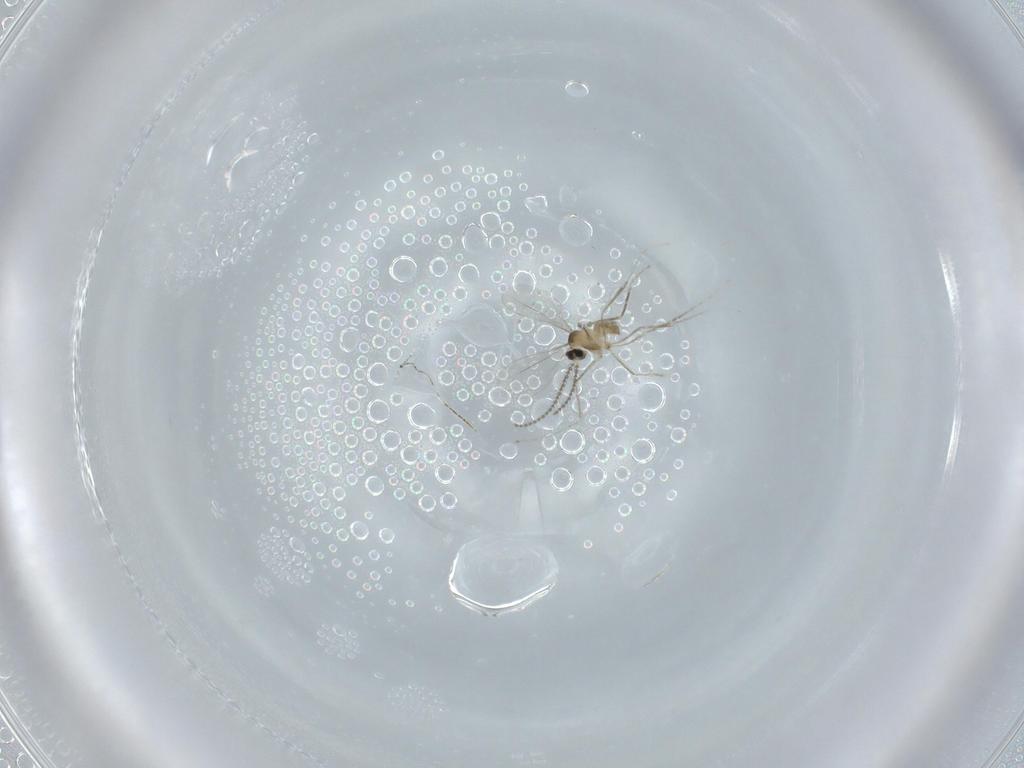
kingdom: Animalia
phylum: Arthropoda
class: Insecta
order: Diptera
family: Cecidomyiidae
